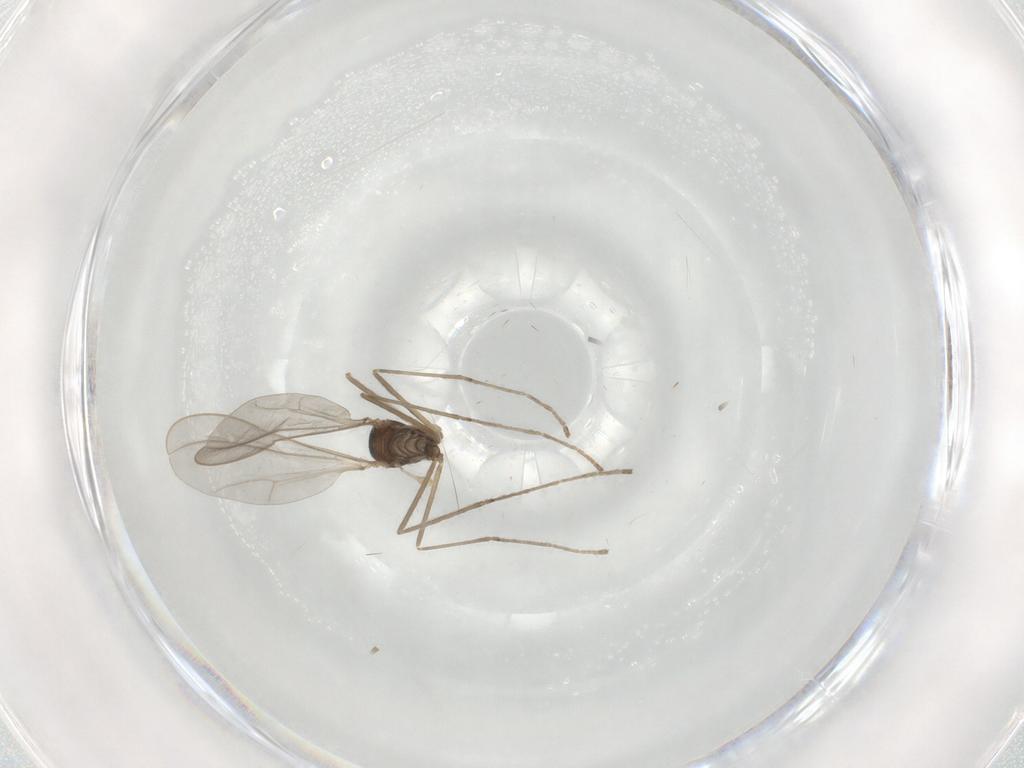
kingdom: Animalia
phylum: Arthropoda
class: Insecta
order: Diptera
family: Cecidomyiidae
